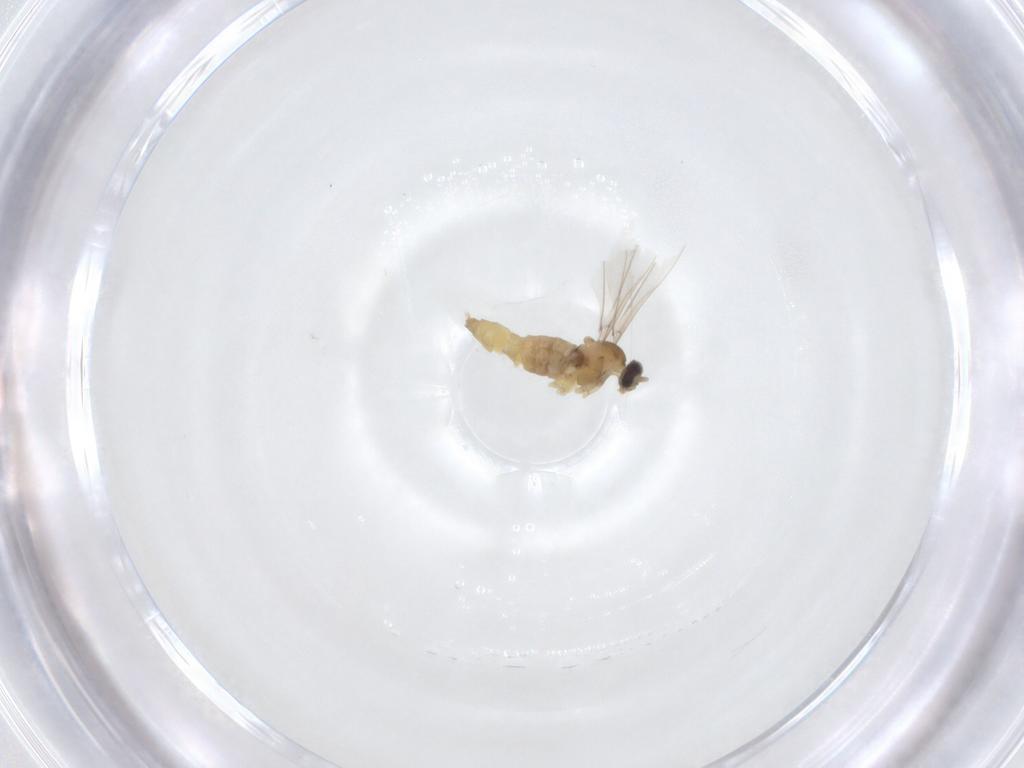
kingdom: Animalia
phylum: Arthropoda
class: Insecta
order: Diptera
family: Cecidomyiidae
